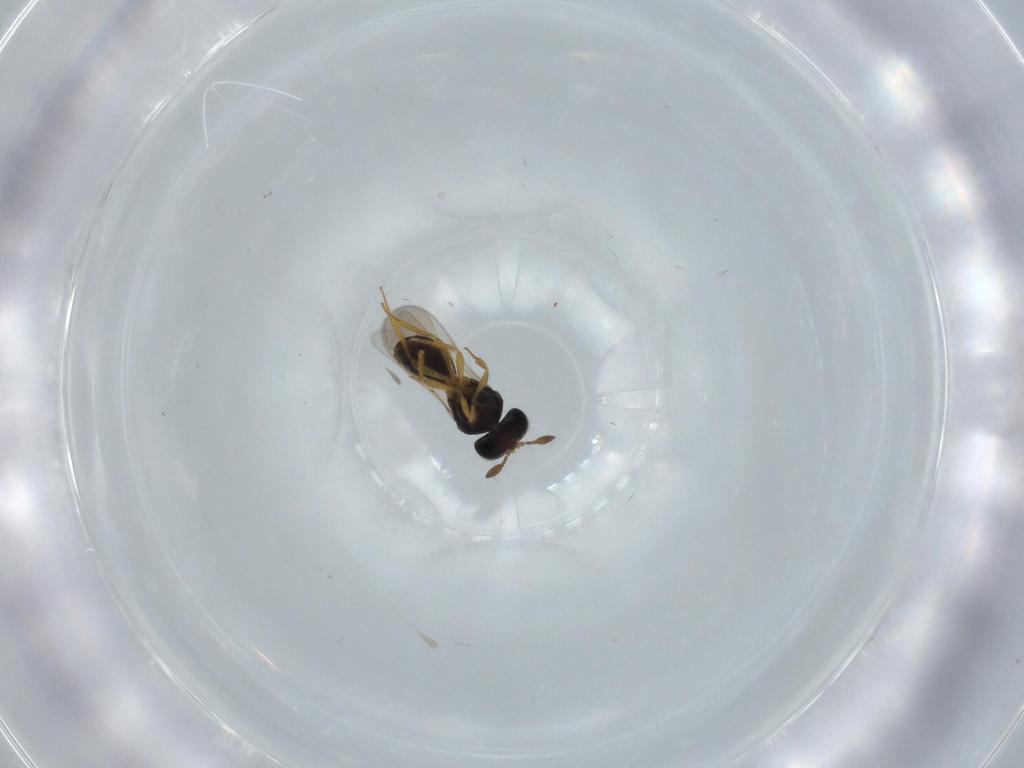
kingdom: Animalia
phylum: Arthropoda
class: Insecta
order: Hymenoptera
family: Scelionidae
